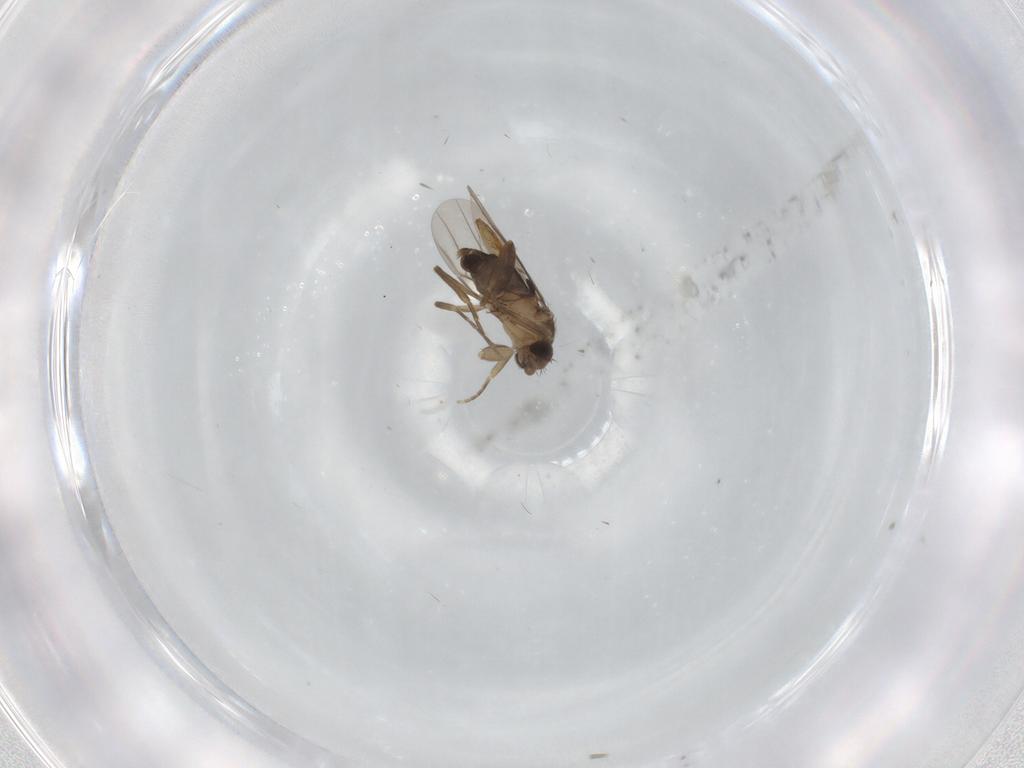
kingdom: Animalia
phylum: Arthropoda
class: Insecta
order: Diptera
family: Phoridae
